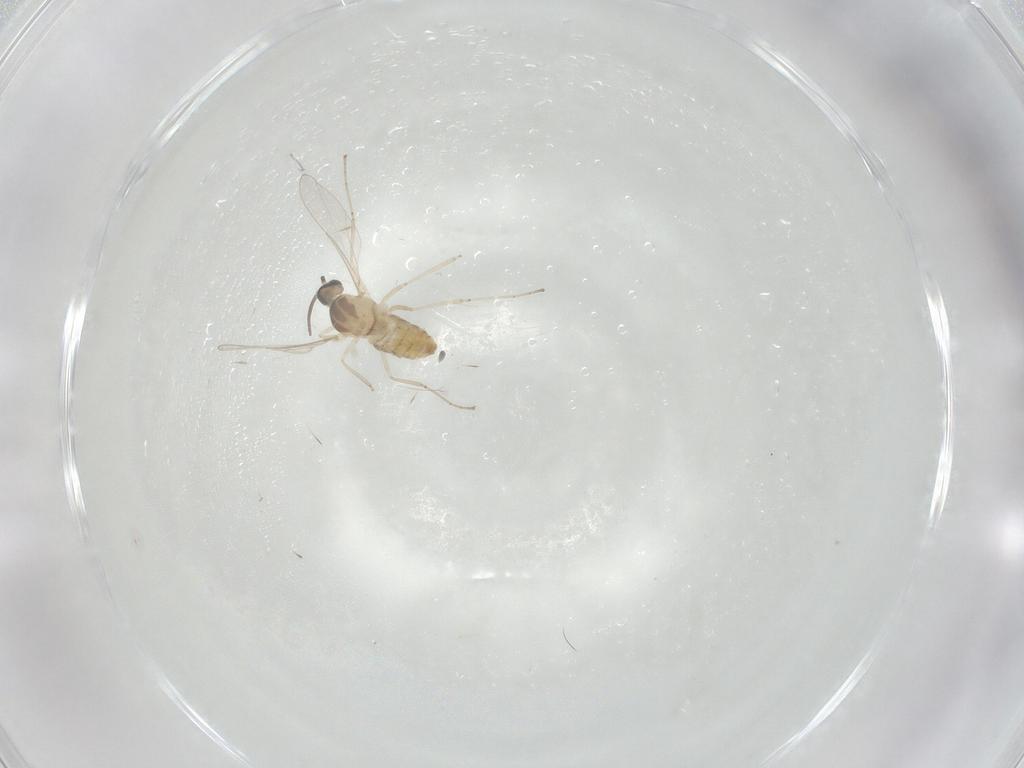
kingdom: Animalia
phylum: Arthropoda
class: Insecta
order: Diptera
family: Cecidomyiidae
